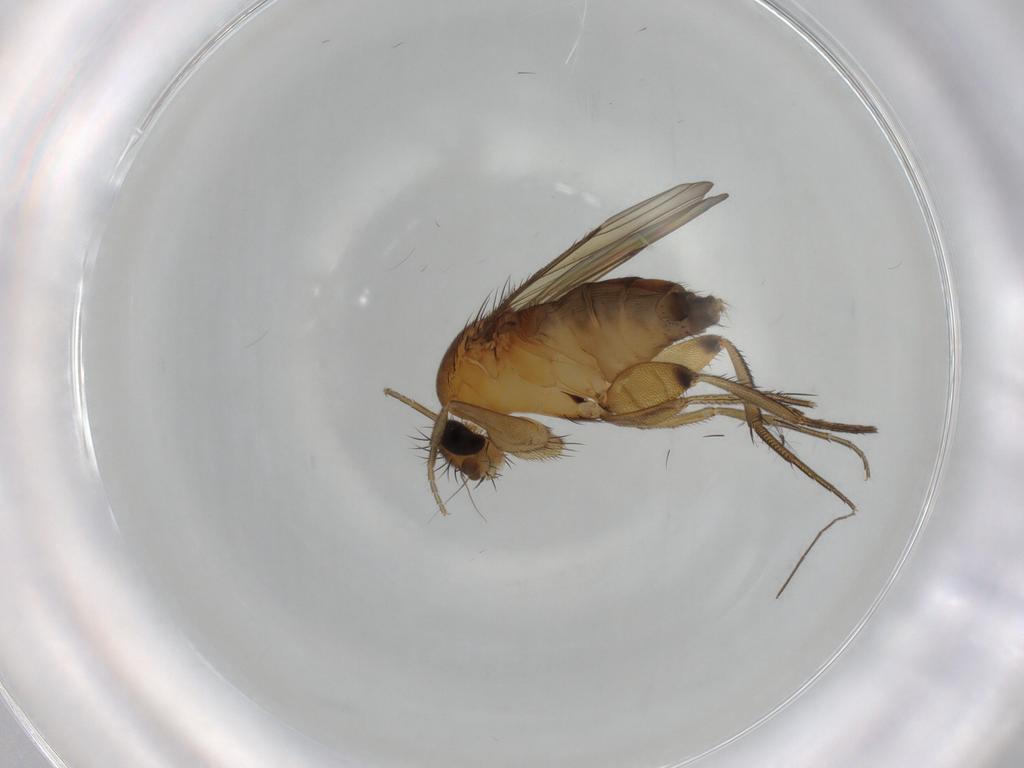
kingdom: Animalia
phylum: Arthropoda
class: Insecta
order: Diptera
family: Phoridae
